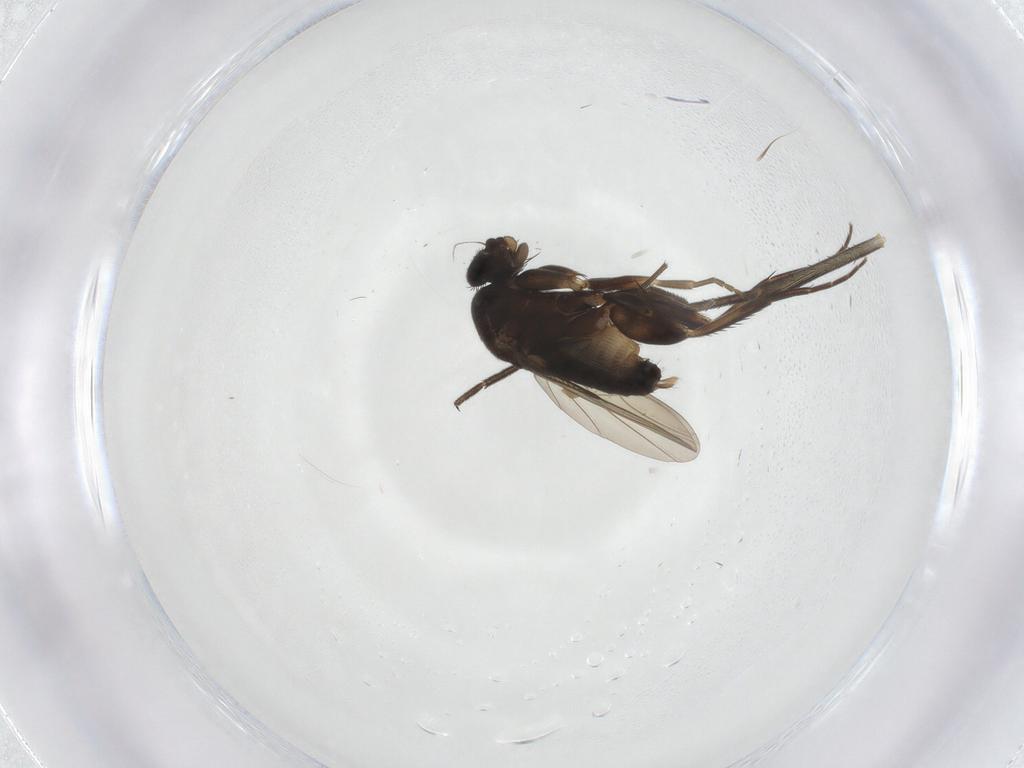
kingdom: Animalia
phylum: Arthropoda
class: Insecta
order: Diptera
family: Keroplatidae
